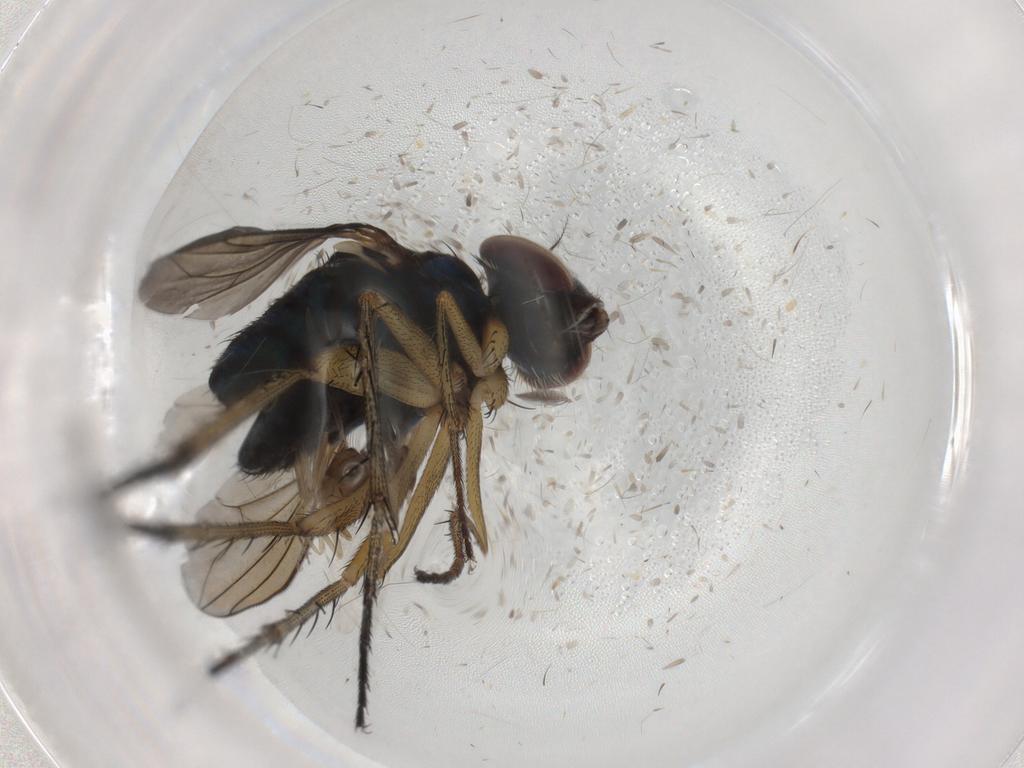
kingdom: Animalia
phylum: Arthropoda
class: Insecta
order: Diptera
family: Dolichopodidae
